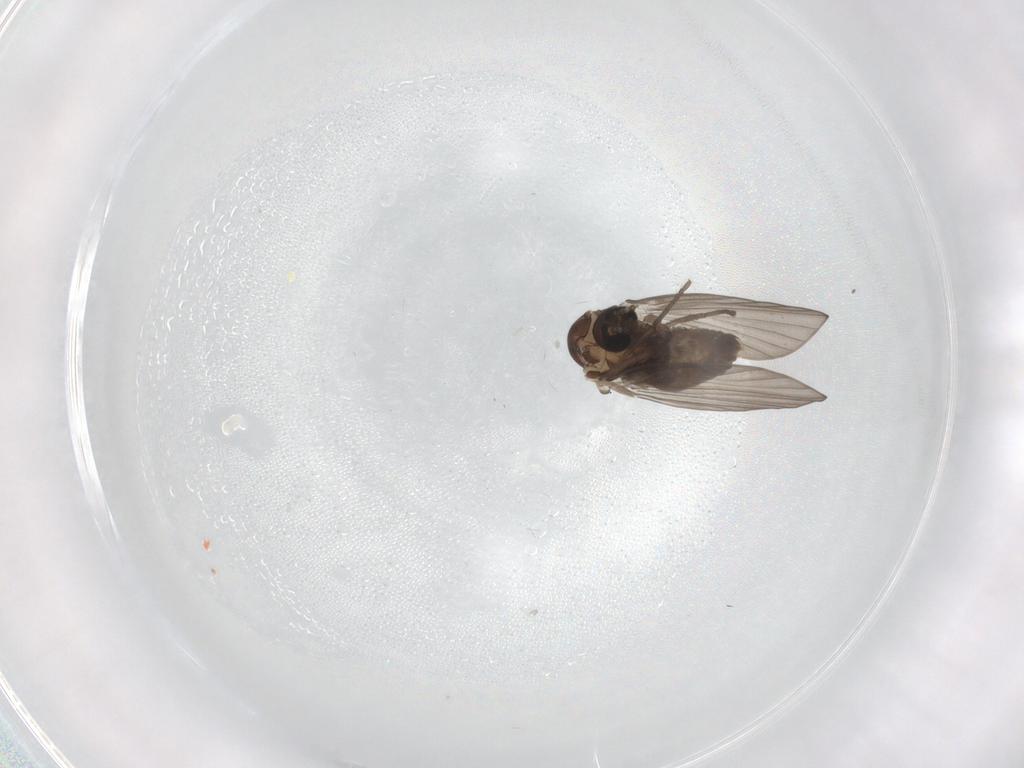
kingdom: Animalia
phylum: Arthropoda
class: Insecta
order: Diptera
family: Psychodidae
